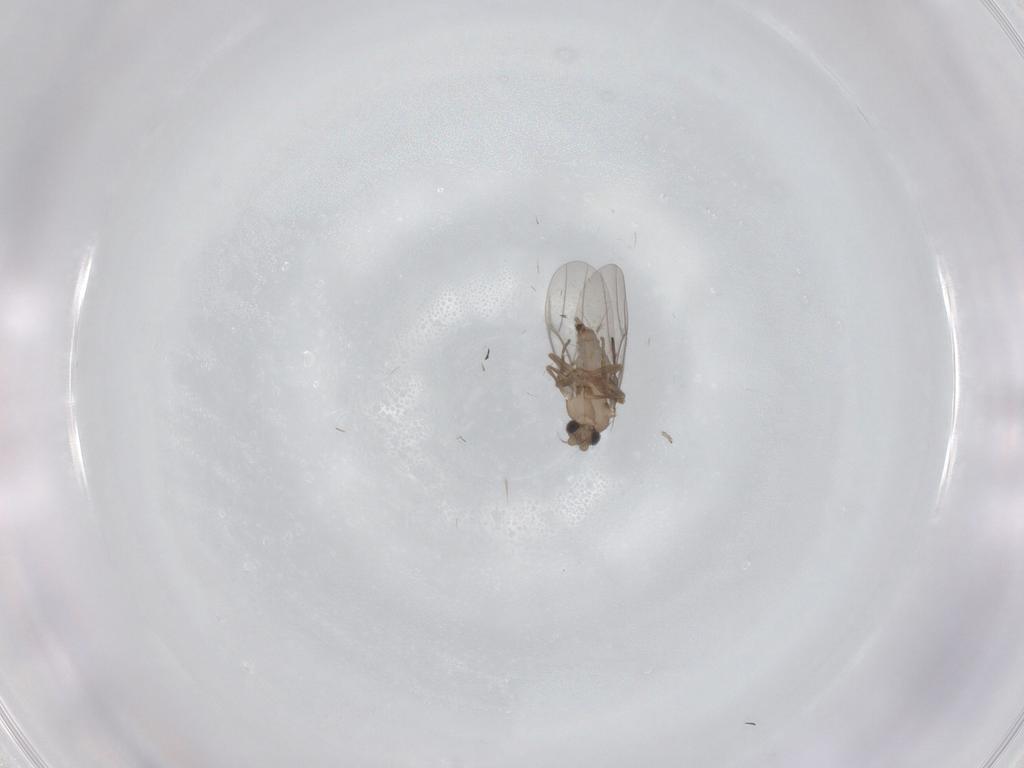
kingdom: Animalia
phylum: Arthropoda
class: Insecta
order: Diptera
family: Ceratopogonidae
